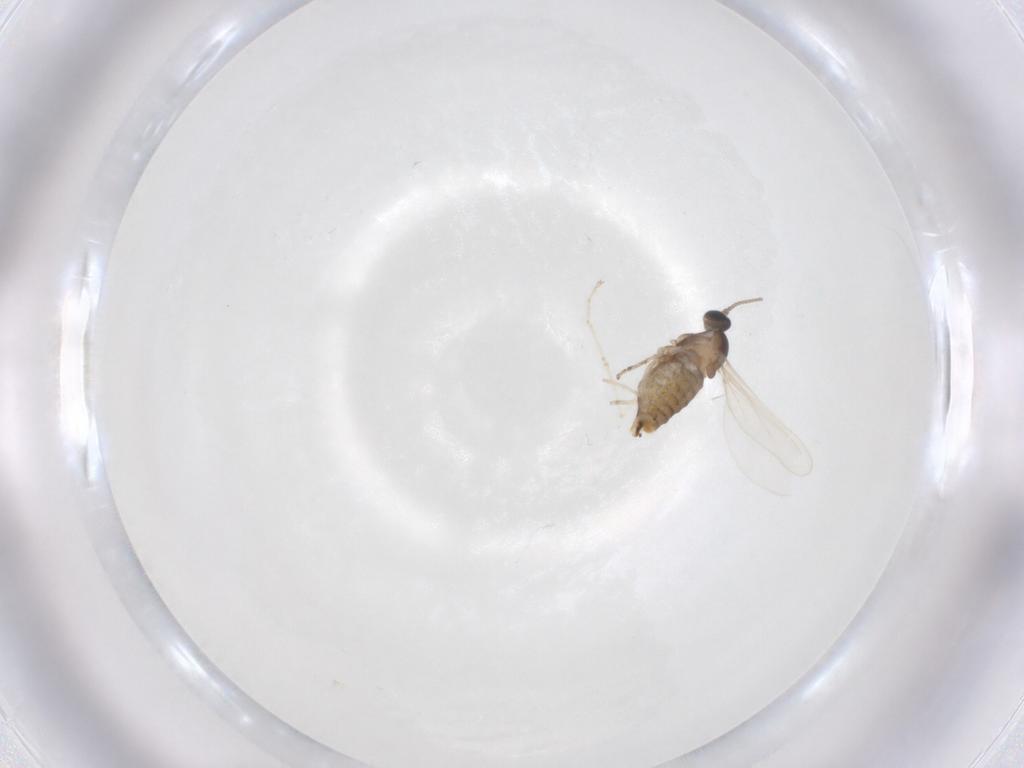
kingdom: Animalia
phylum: Arthropoda
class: Insecta
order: Diptera
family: Cecidomyiidae
